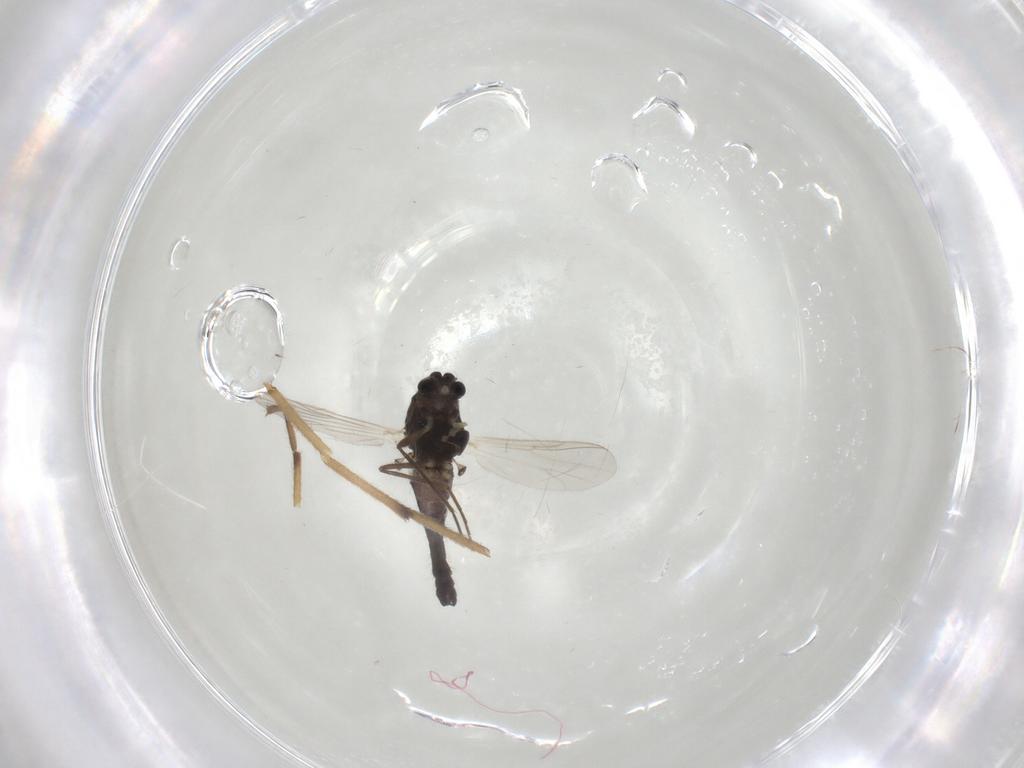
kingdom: Animalia
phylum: Arthropoda
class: Insecta
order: Diptera
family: Chironomidae
